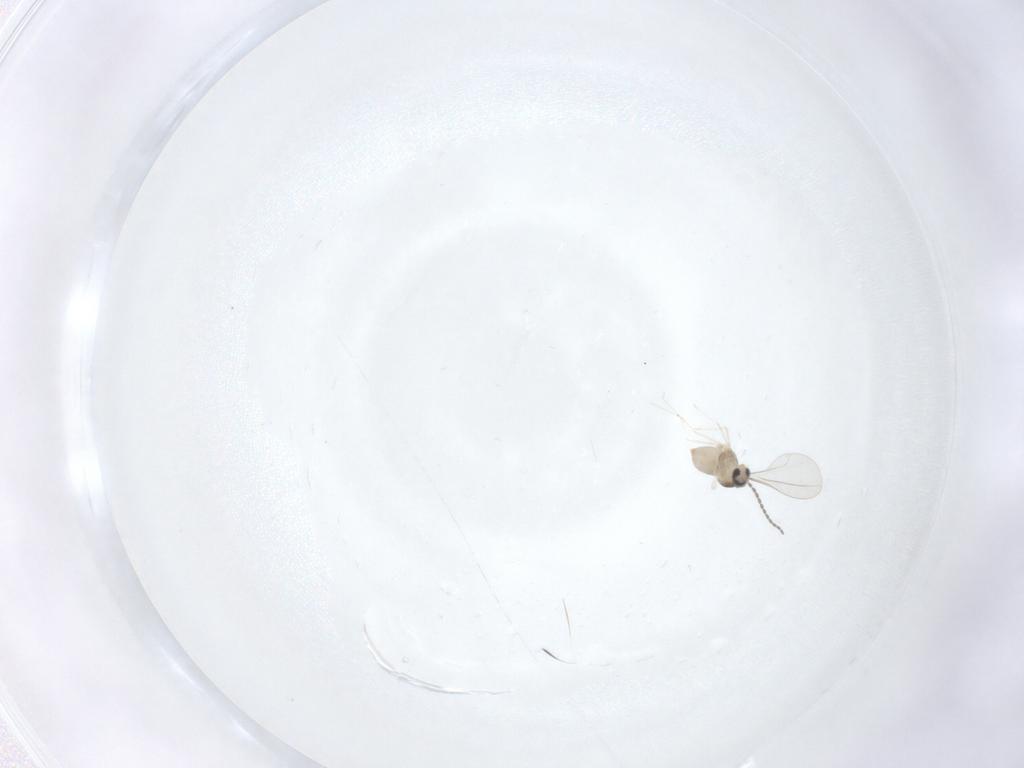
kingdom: Animalia
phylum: Arthropoda
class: Insecta
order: Diptera
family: Cecidomyiidae
